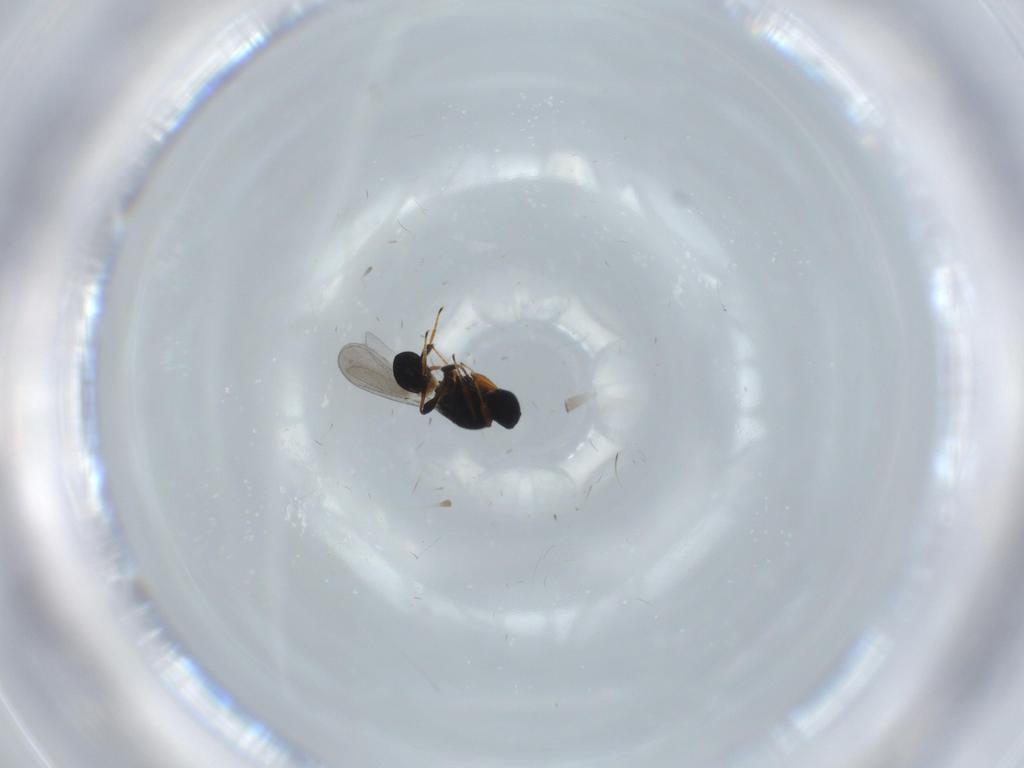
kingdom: Animalia
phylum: Arthropoda
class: Insecta
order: Hymenoptera
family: Platygastridae
